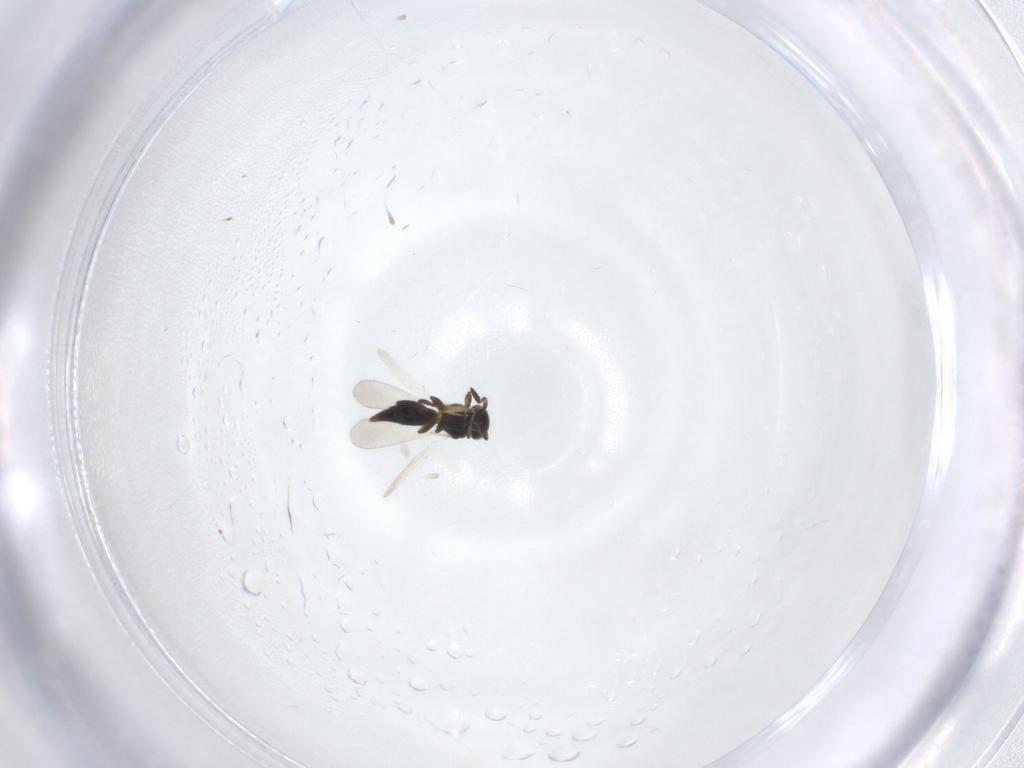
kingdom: Animalia
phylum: Arthropoda
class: Insecta
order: Hymenoptera
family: Platygastridae
